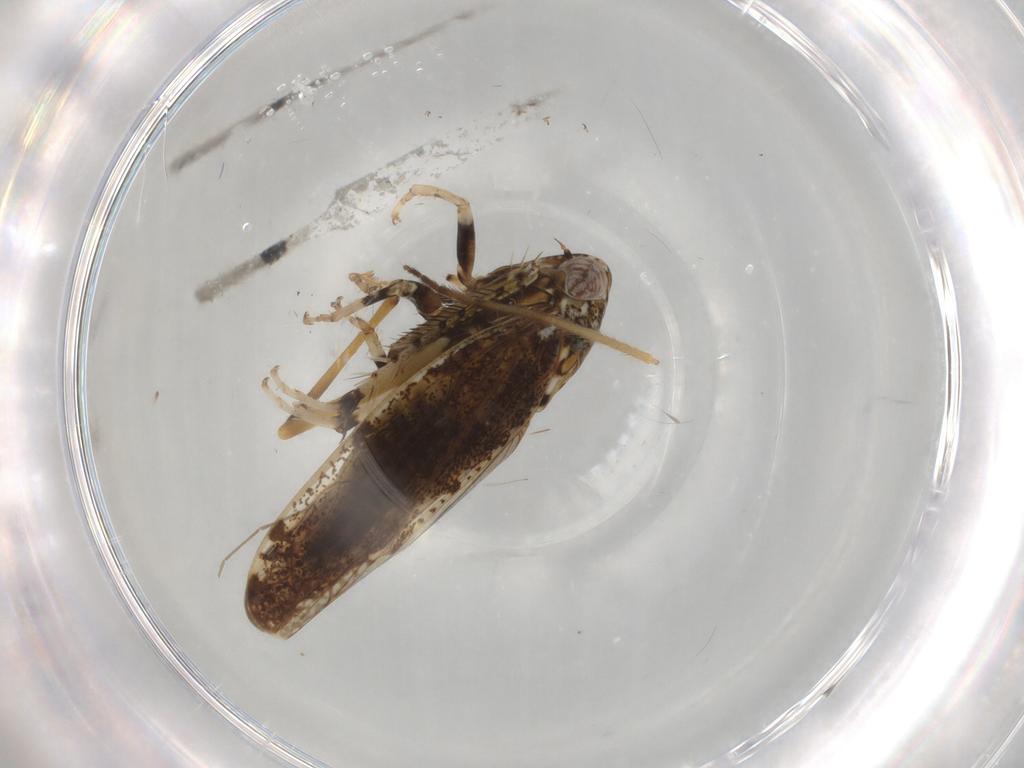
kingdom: Animalia
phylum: Arthropoda
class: Insecta
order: Hemiptera
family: Cicadellidae
